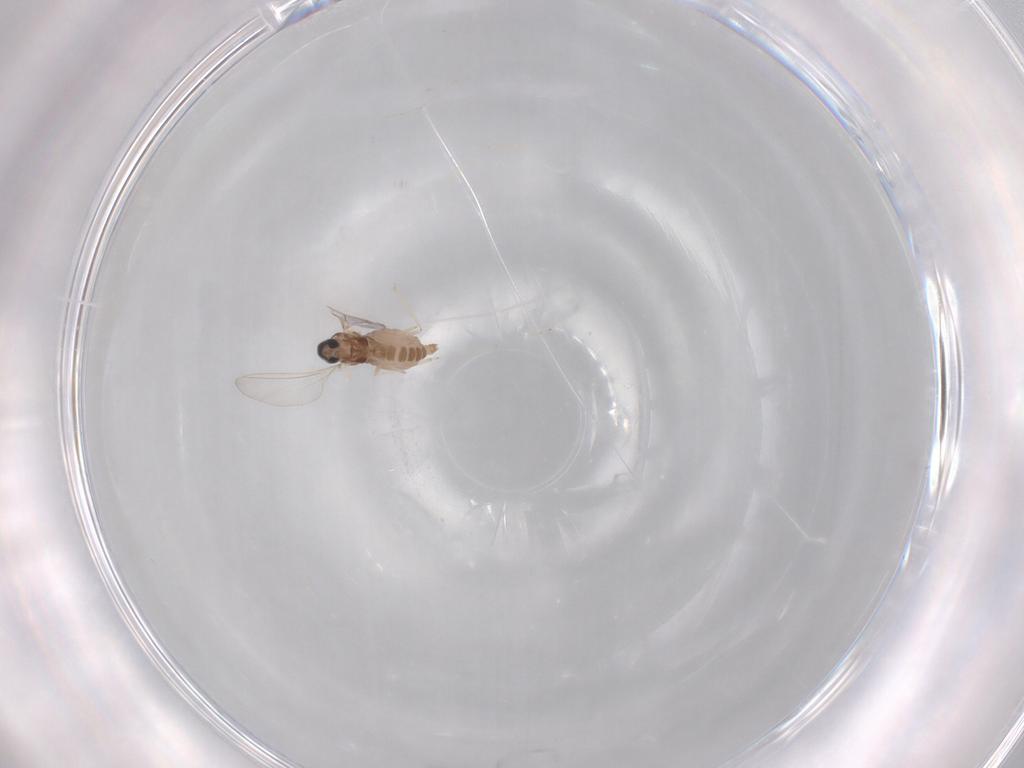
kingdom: Animalia
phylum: Arthropoda
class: Insecta
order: Diptera
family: Cecidomyiidae
